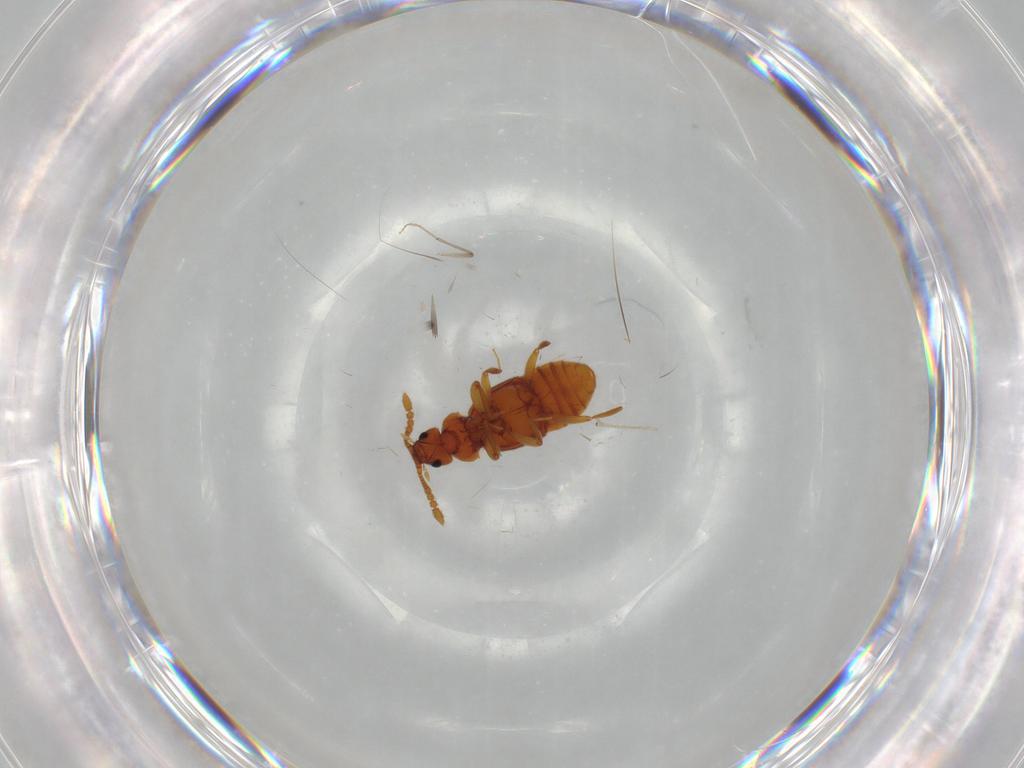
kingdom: Animalia
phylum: Arthropoda
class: Insecta
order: Coleoptera
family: Staphylinidae
